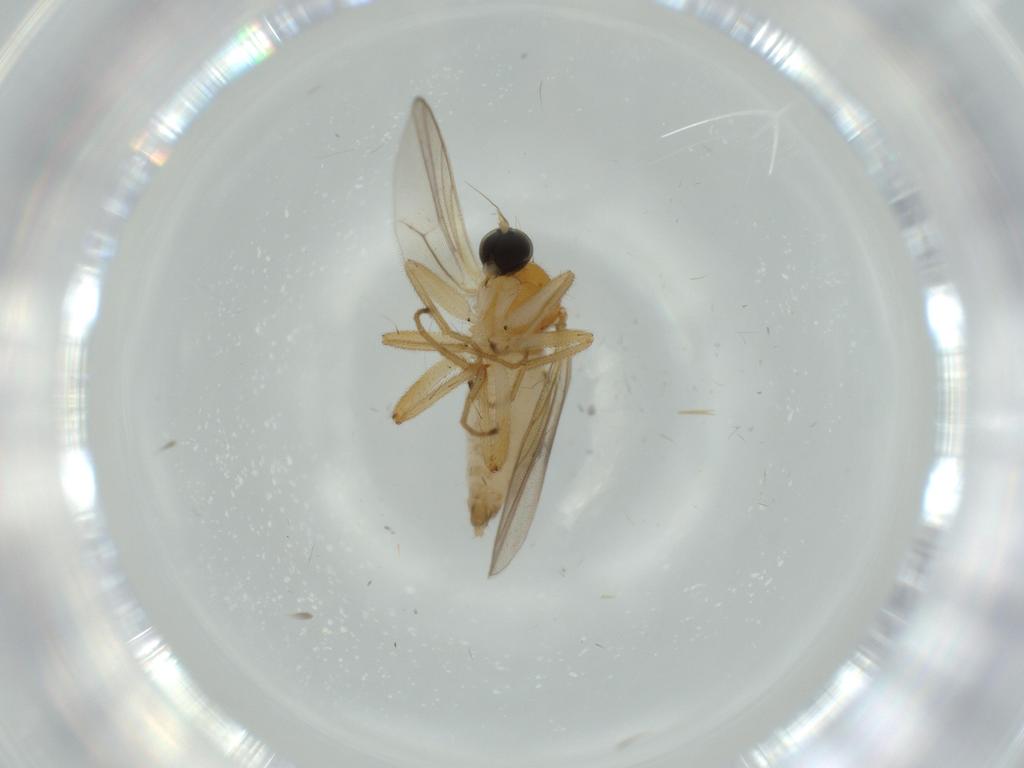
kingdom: Animalia
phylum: Arthropoda
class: Insecta
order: Diptera
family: Hybotidae
